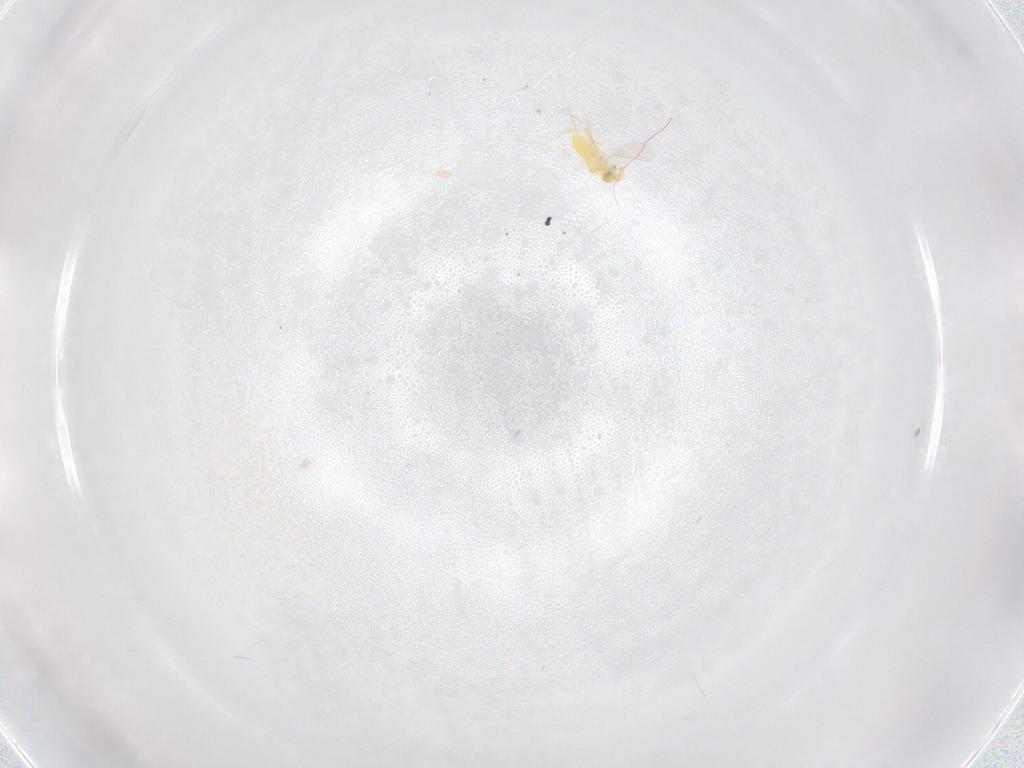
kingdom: Animalia
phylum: Arthropoda
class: Insecta
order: Hymenoptera
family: Aphelinidae
